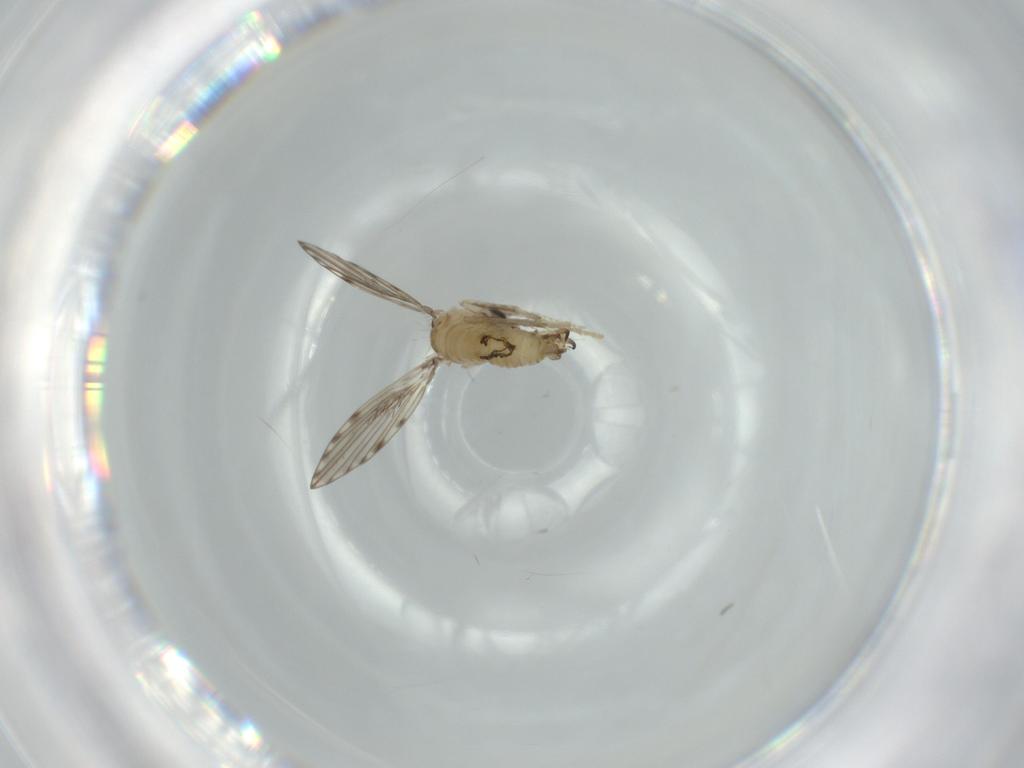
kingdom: Animalia
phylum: Arthropoda
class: Insecta
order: Diptera
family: Psychodidae
